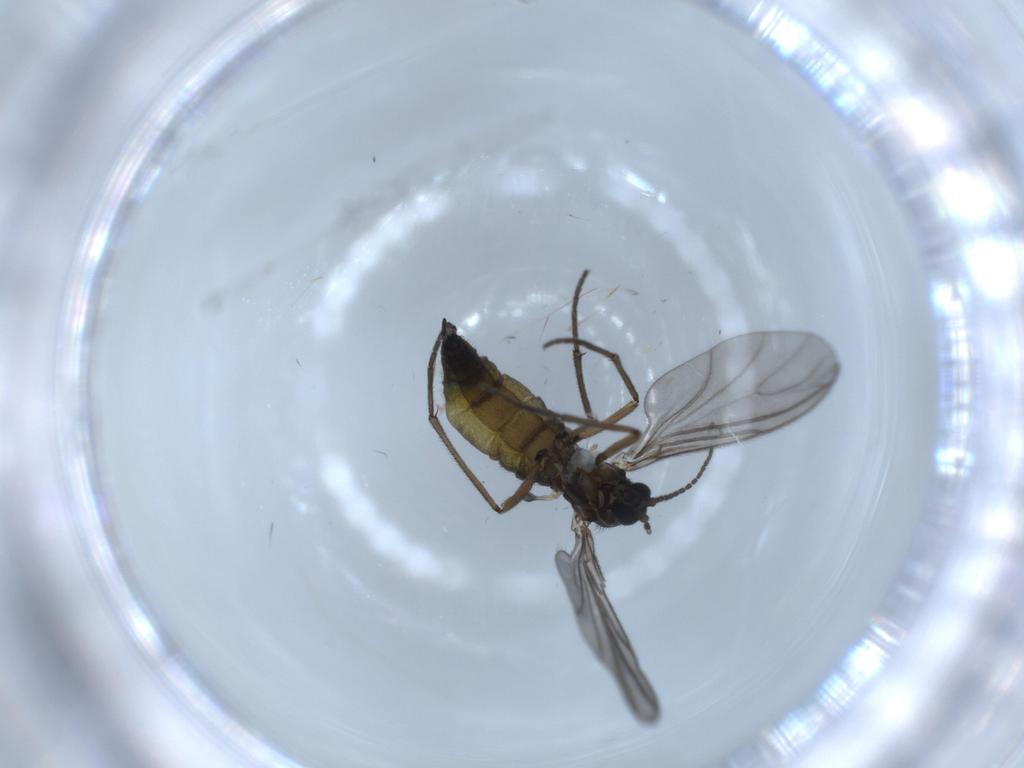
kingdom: Animalia
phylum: Arthropoda
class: Insecta
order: Diptera
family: Sciaridae
